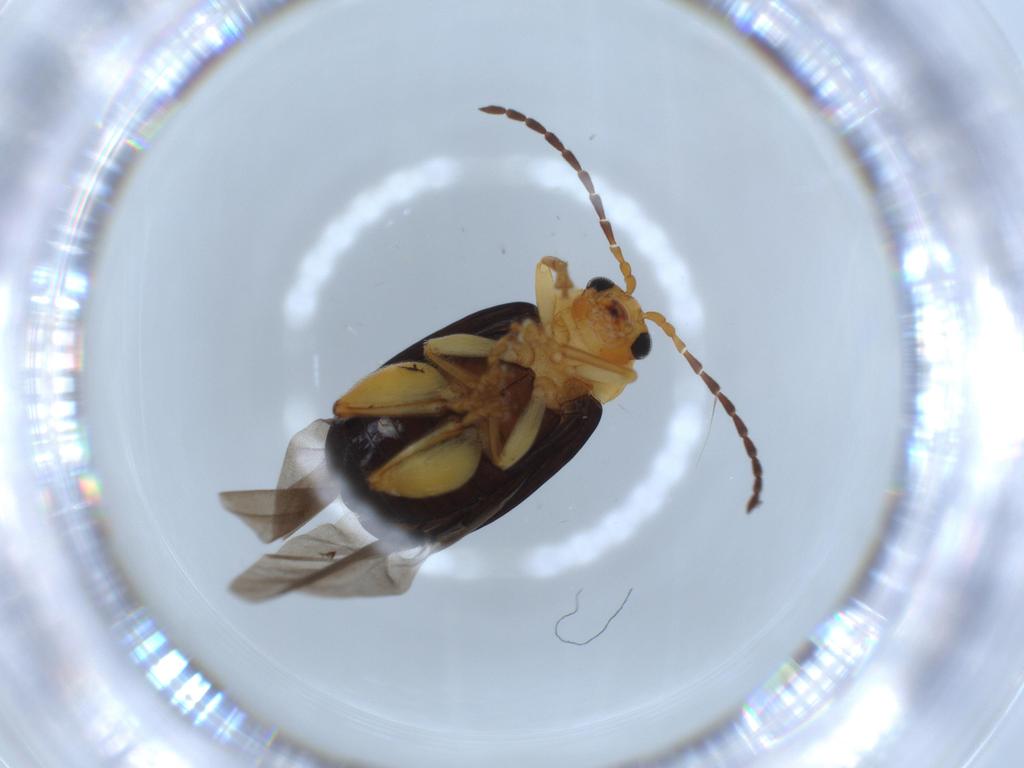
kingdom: Animalia
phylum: Arthropoda
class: Insecta
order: Coleoptera
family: Chrysomelidae
